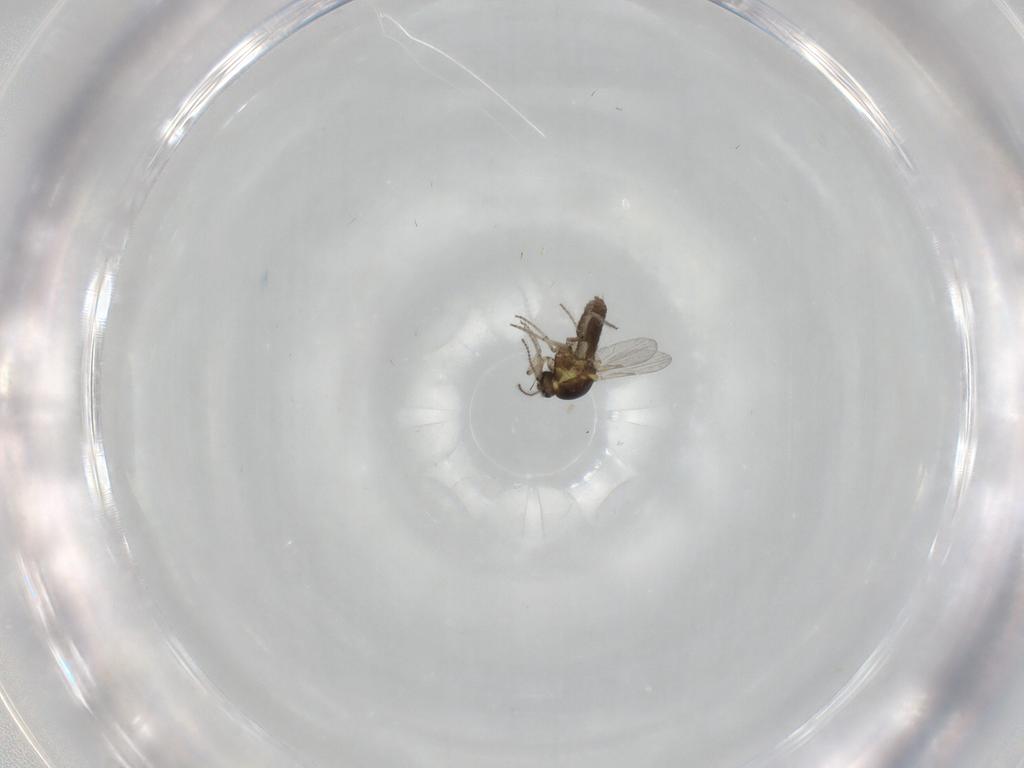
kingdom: Animalia
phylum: Arthropoda
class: Insecta
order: Diptera
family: Ceratopogonidae
